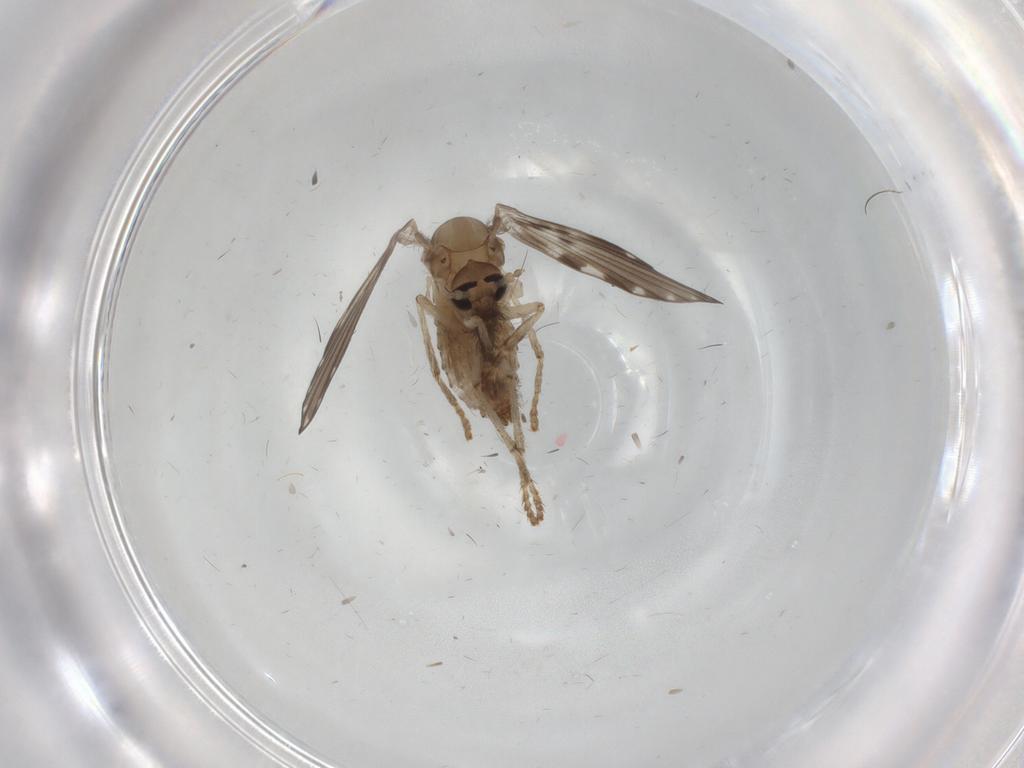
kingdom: Animalia
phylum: Arthropoda
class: Insecta
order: Diptera
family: Psychodidae
